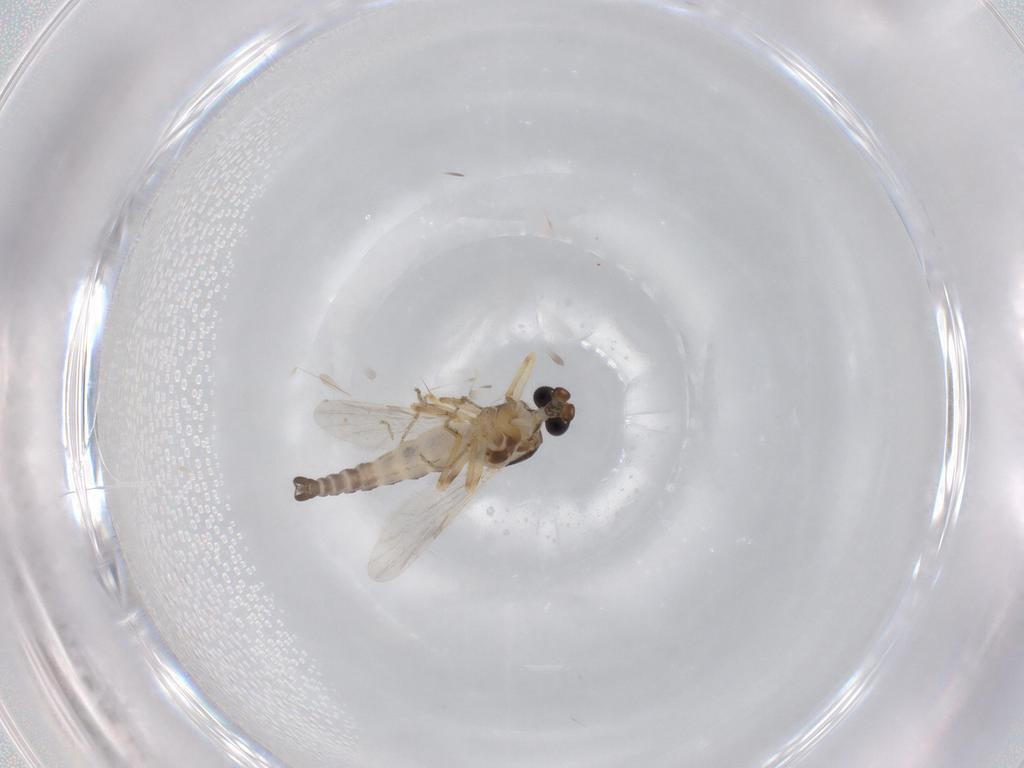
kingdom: Animalia
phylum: Arthropoda
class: Insecta
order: Diptera
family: Ceratopogonidae
